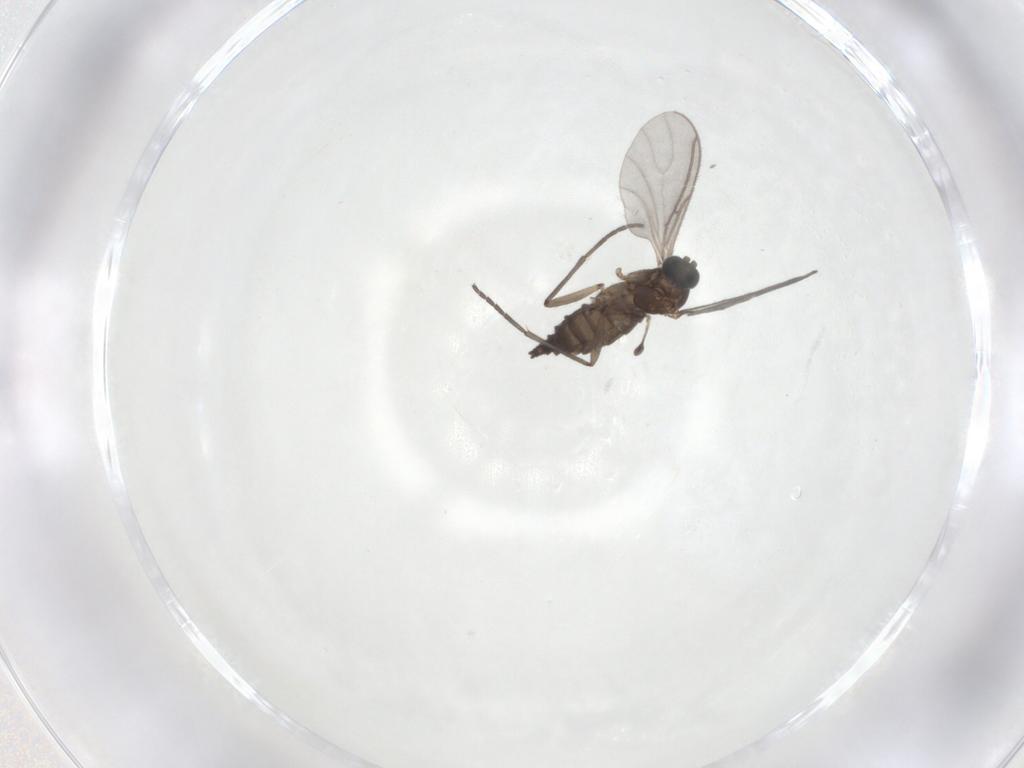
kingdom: Animalia
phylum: Arthropoda
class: Insecta
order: Diptera
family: Sciaridae
